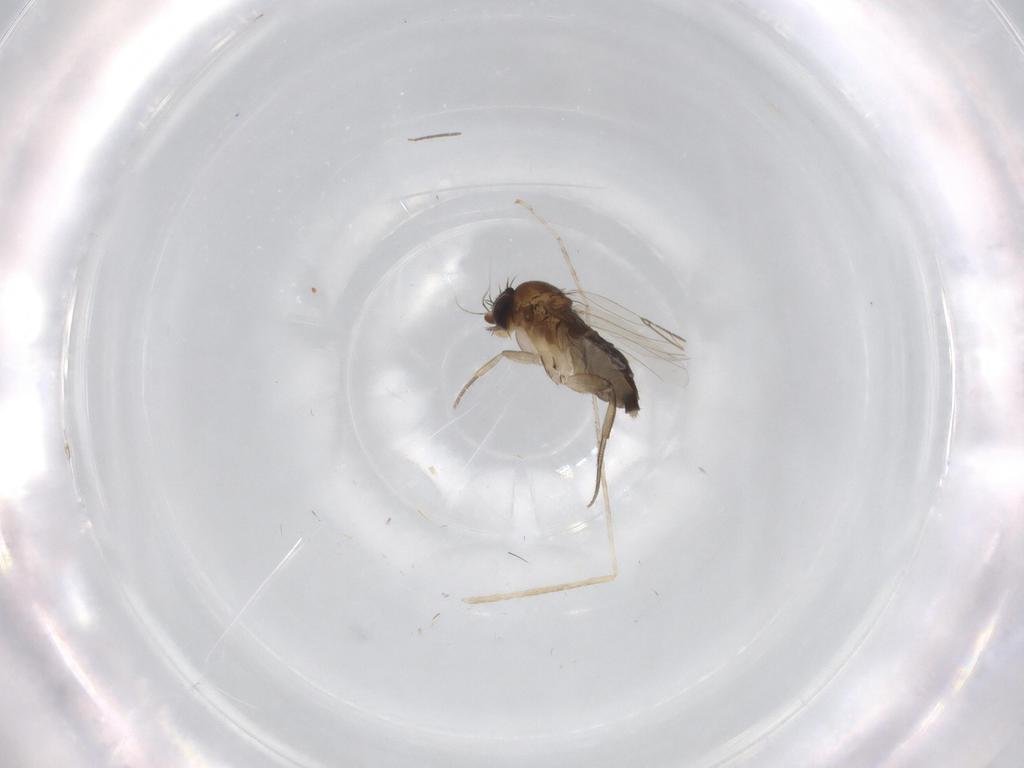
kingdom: Animalia
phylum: Arthropoda
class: Insecta
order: Diptera
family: Phoridae
